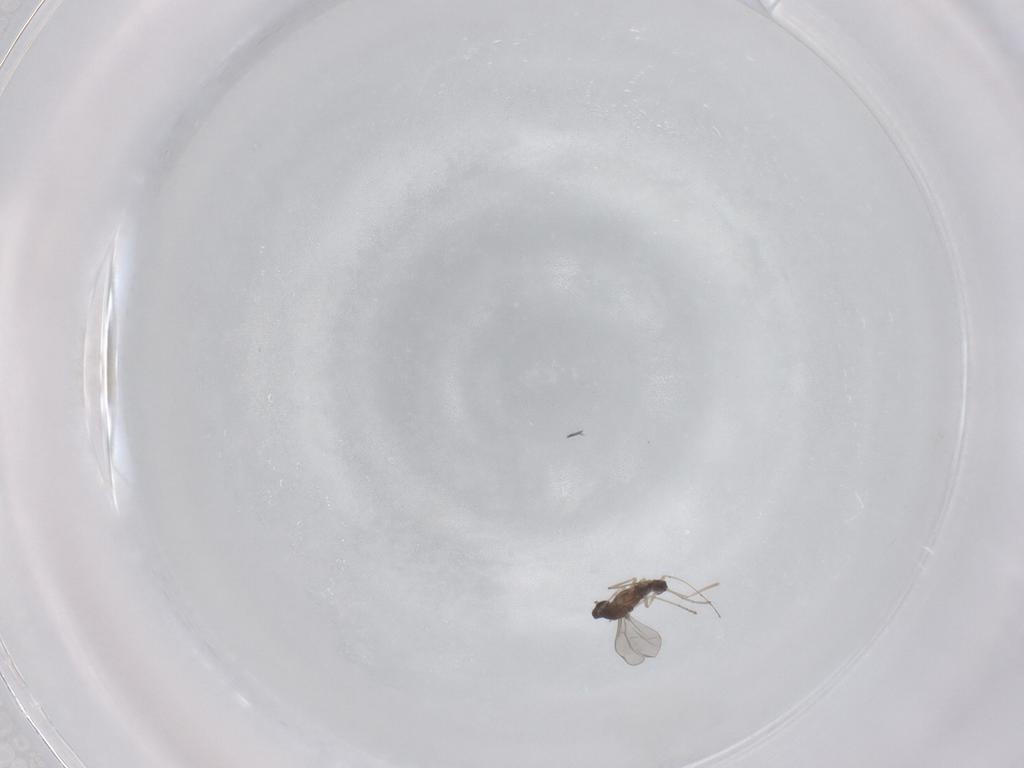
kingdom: Animalia
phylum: Arthropoda
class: Insecta
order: Diptera
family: Cecidomyiidae
